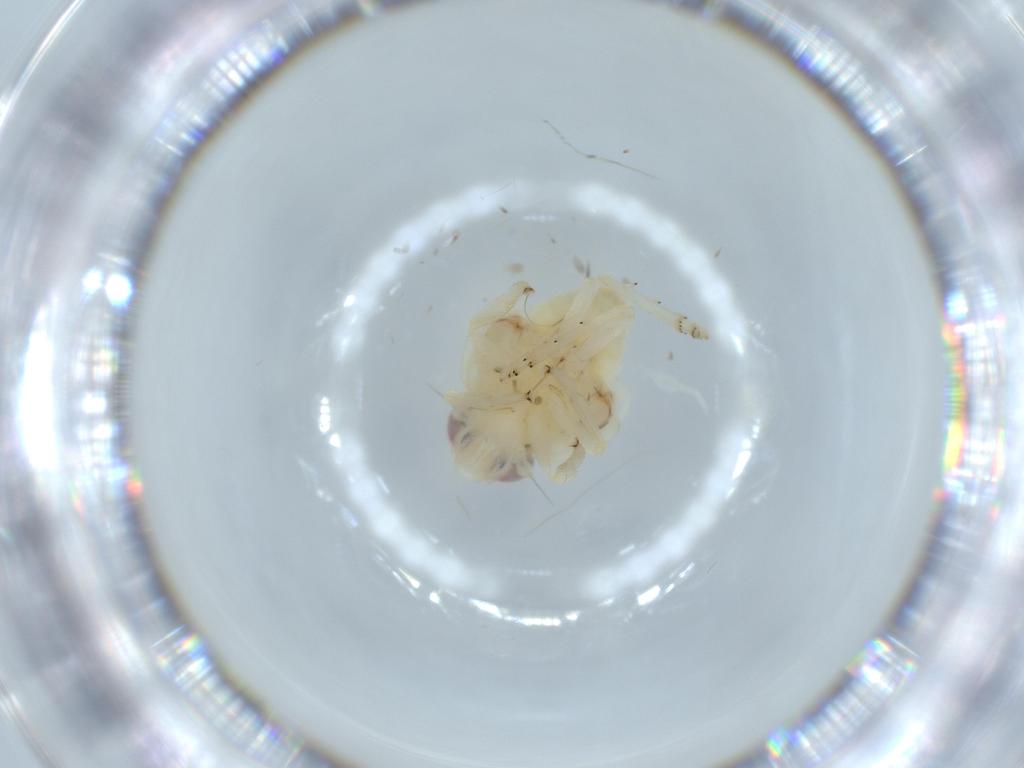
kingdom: Animalia
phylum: Arthropoda
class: Insecta
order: Hemiptera
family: Nogodinidae
